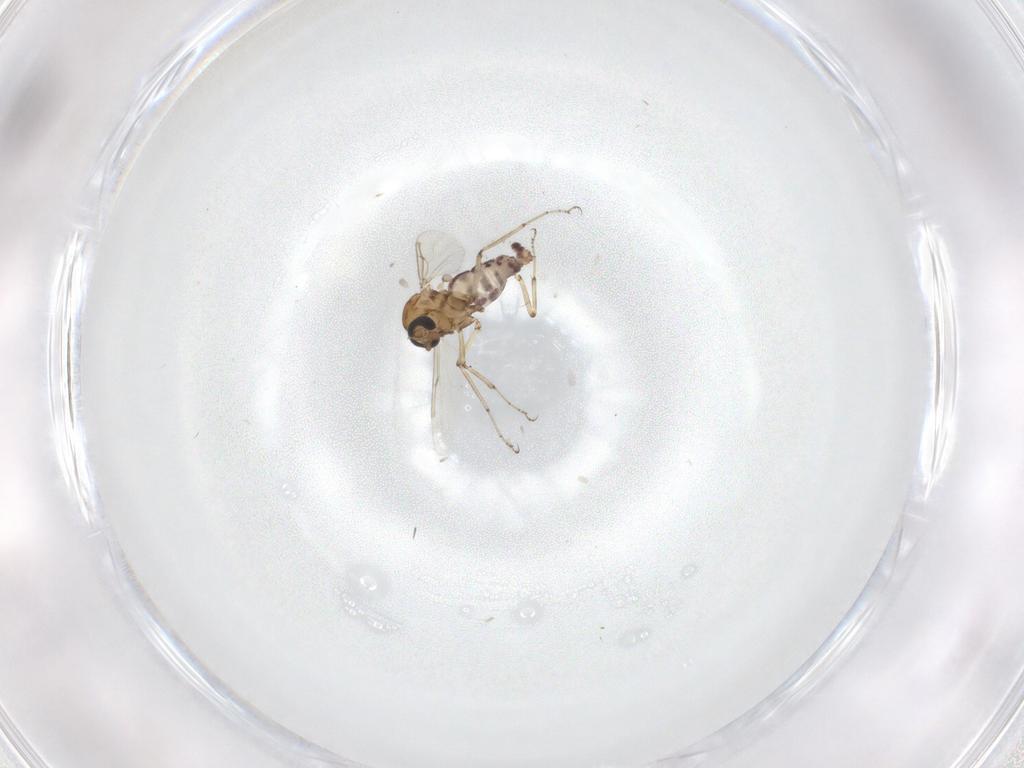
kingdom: Animalia
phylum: Arthropoda
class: Insecta
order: Diptera
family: Ceratopogonidae
